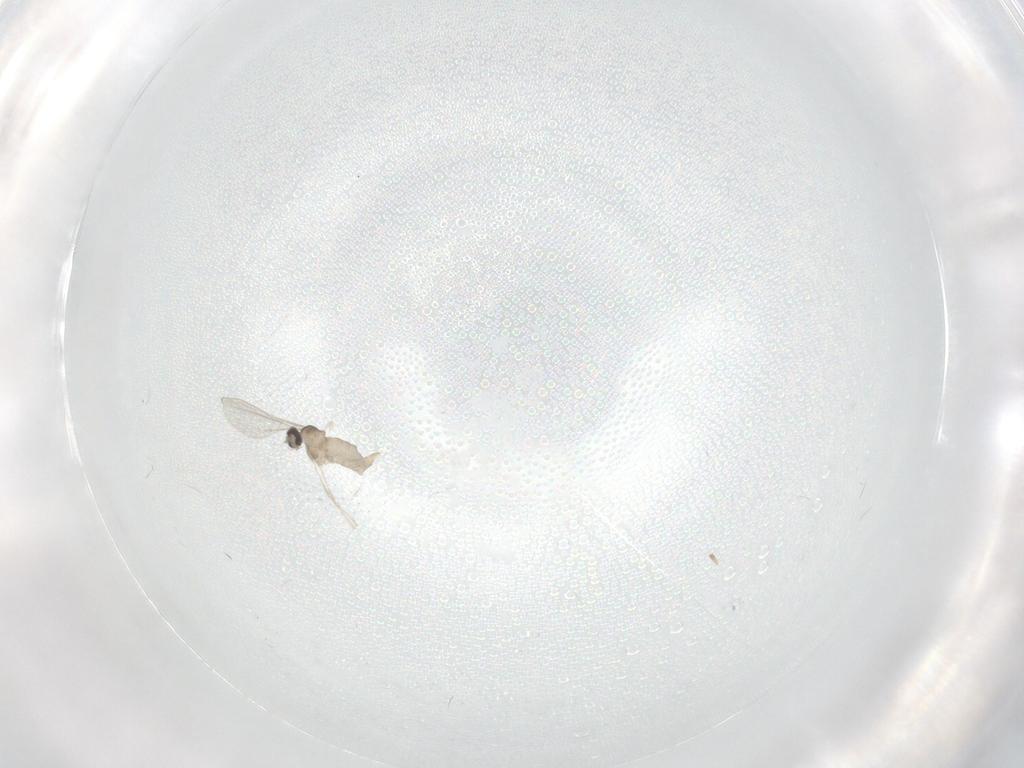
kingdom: Animalia
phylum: Arthropoda
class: Insecta
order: Diptera
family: Cecidomyiidae
